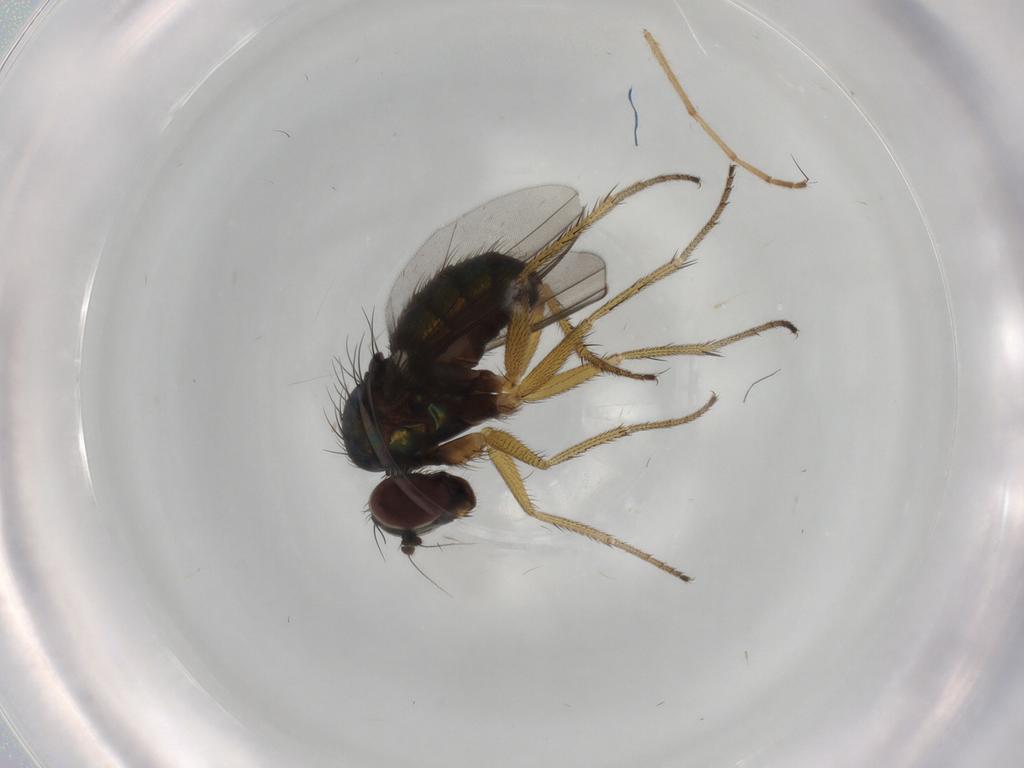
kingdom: Animalia
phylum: Arthropoda
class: Insecta
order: Diptera
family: Dolichopodidae
